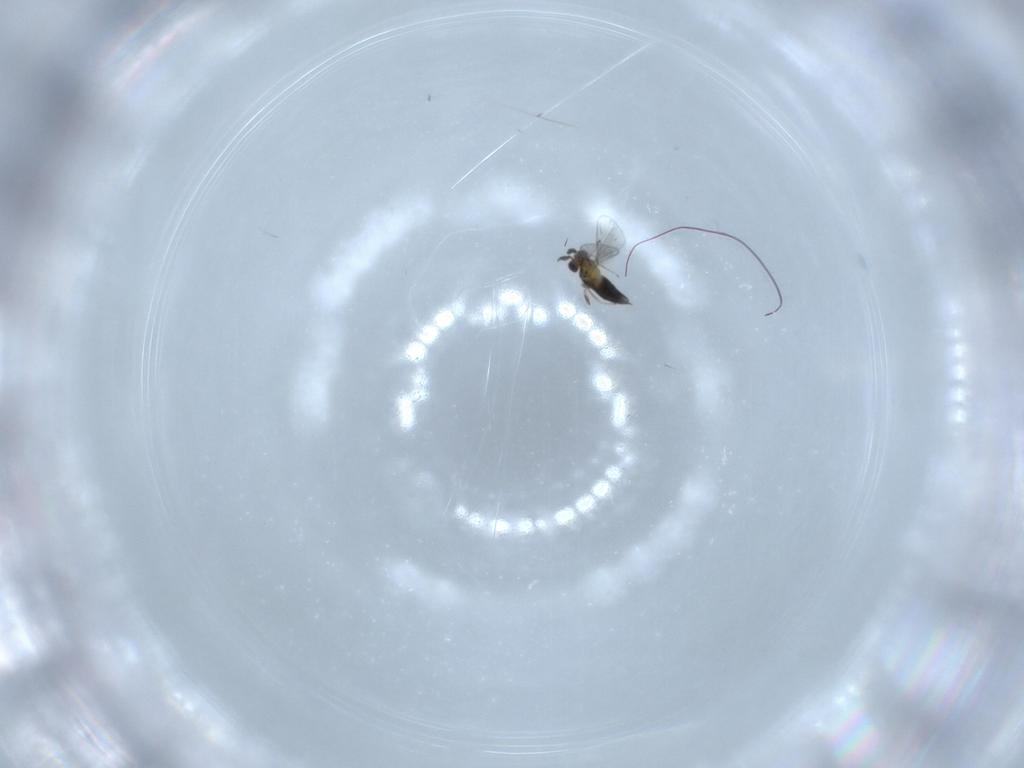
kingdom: Animalia
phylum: Arthropoda
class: Insecta
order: Hymenoptera
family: Trichogrammatidae
